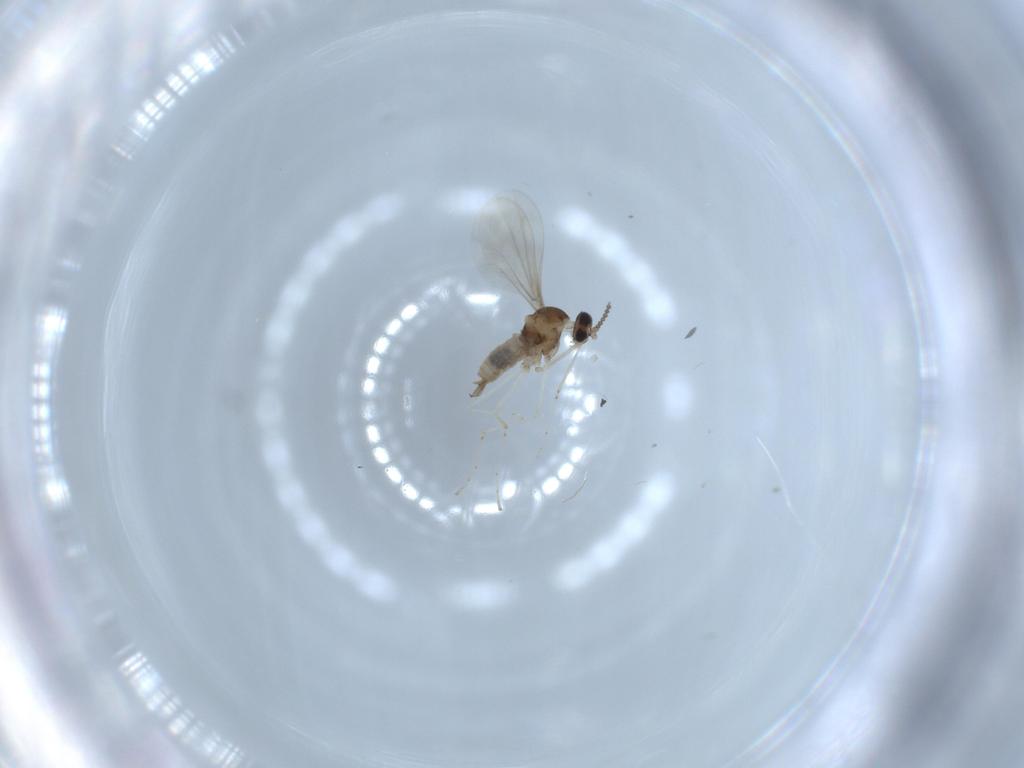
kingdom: Animalia
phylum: Arthropoda
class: Insecta
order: Diptera
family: Cecidomyiidae
